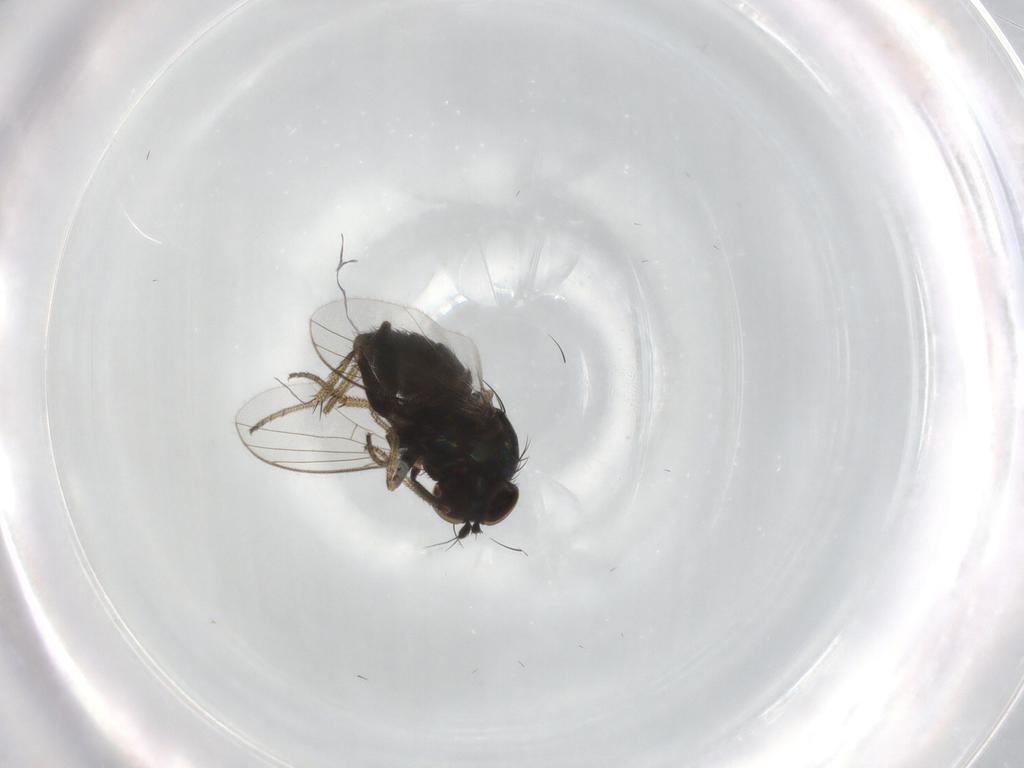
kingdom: Animalia
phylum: Arthropoda
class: Insecta
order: Diptera
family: Dolichopodidae
